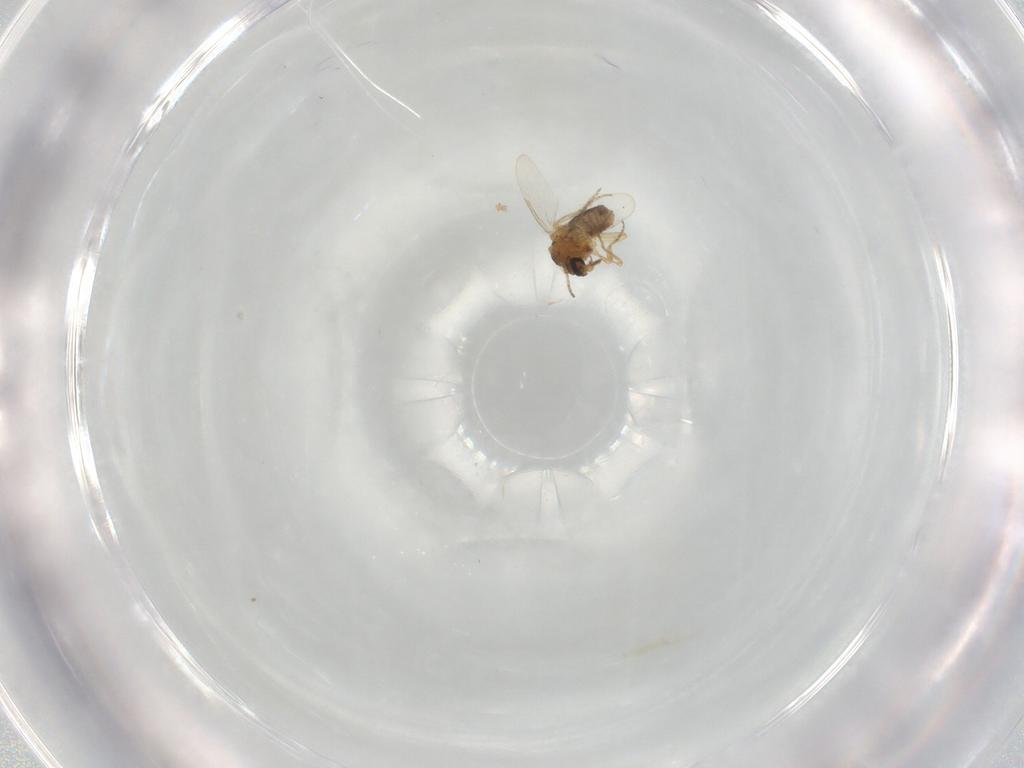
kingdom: Animalia
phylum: Arthropoda
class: Insecta
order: Diptera
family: Ceratopogonidae
